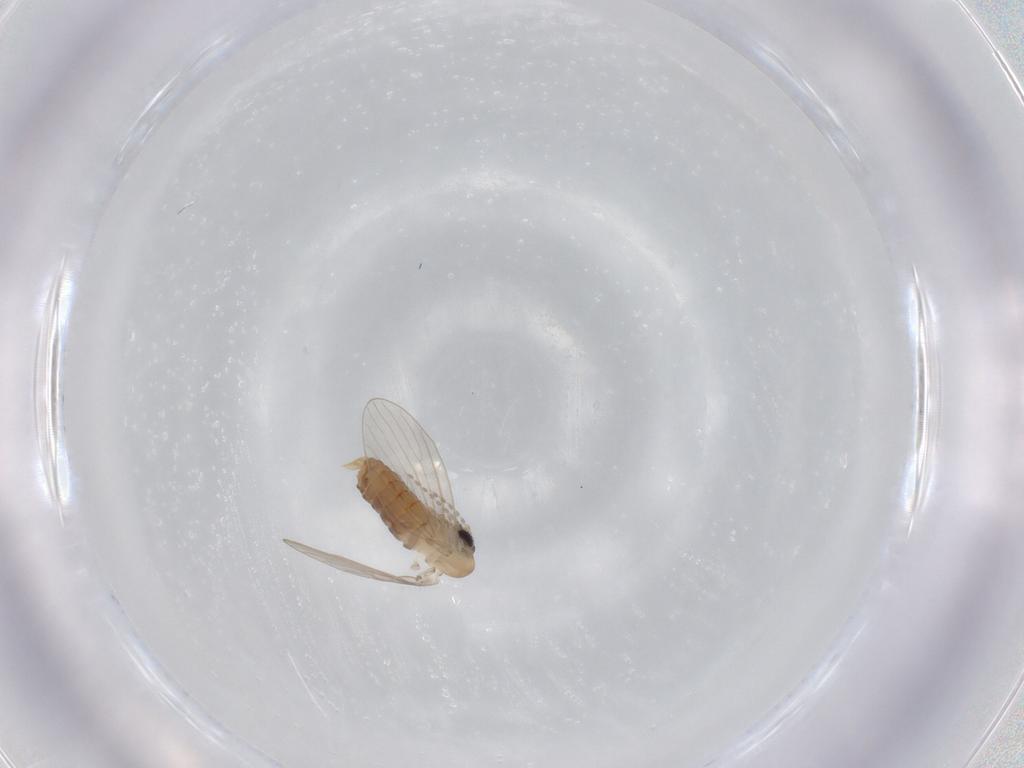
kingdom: Animalia
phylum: Arthropoda
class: Insecta
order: Diptera
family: Psychodidae
